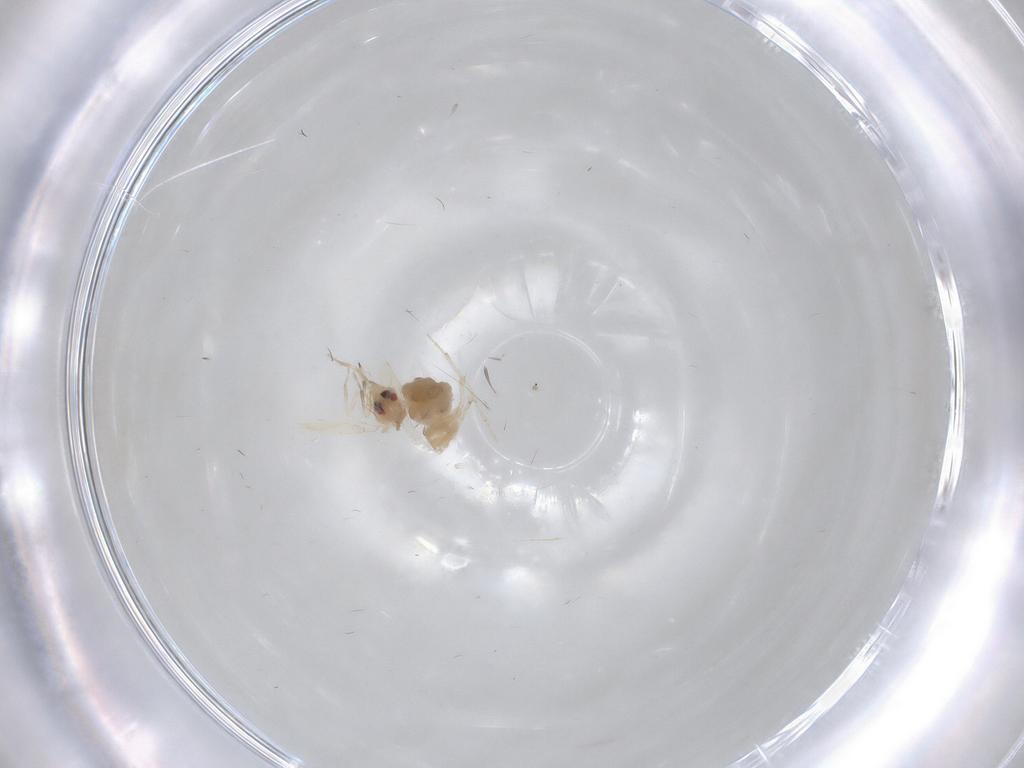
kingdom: Animalia
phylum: Arthropoda
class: Insecta
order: Hemiptera
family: Aleyrodidae
